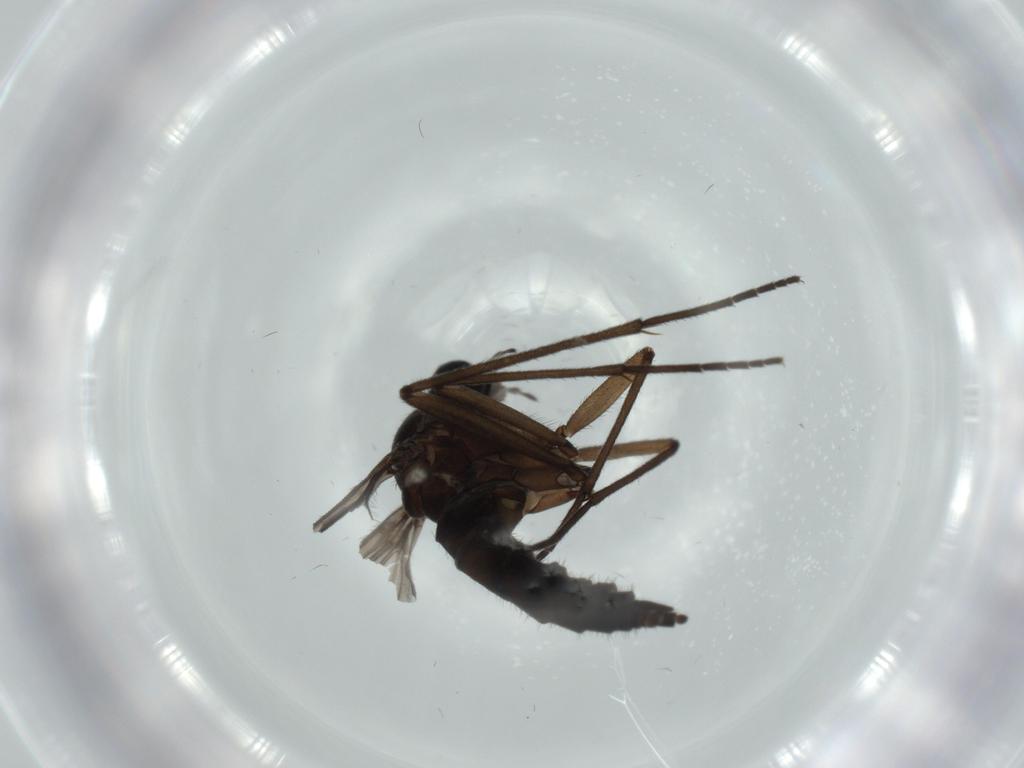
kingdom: Animalia
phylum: Arthropoda
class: Insecta
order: Diptera
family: Sciaridae
